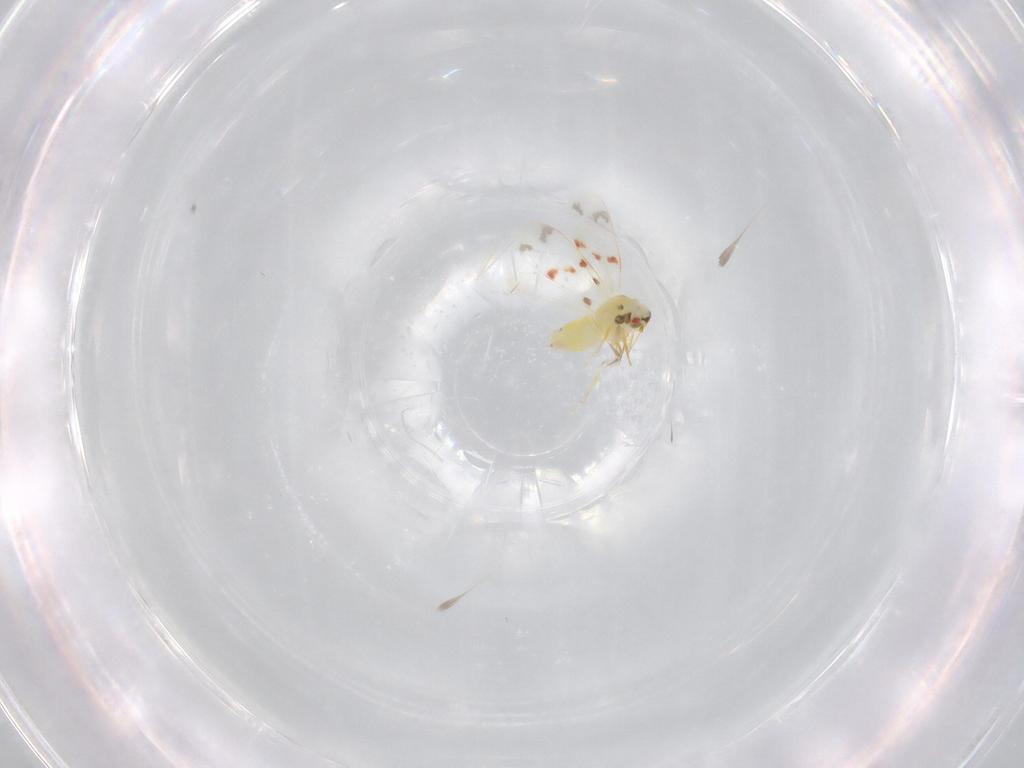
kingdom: Animalia
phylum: Arthropoda
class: Insecta
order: Hemiptera
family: Aleyrodidae
